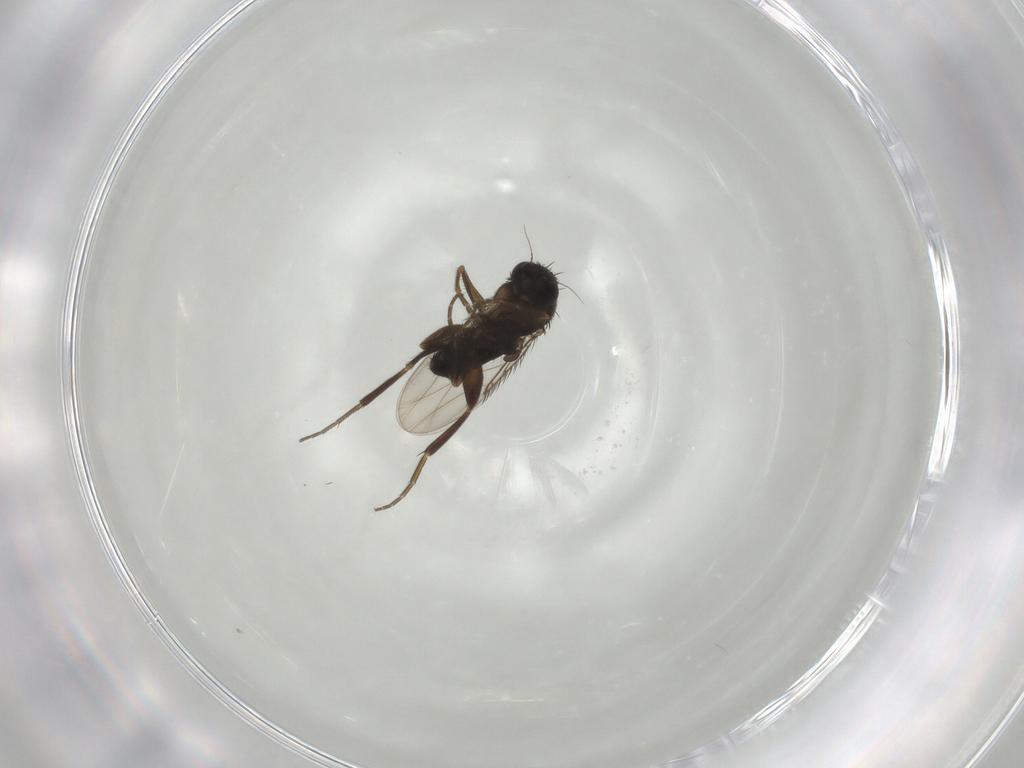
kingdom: Animalia
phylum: Arthropoda
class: Insecta
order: Diptera
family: Phoridae
